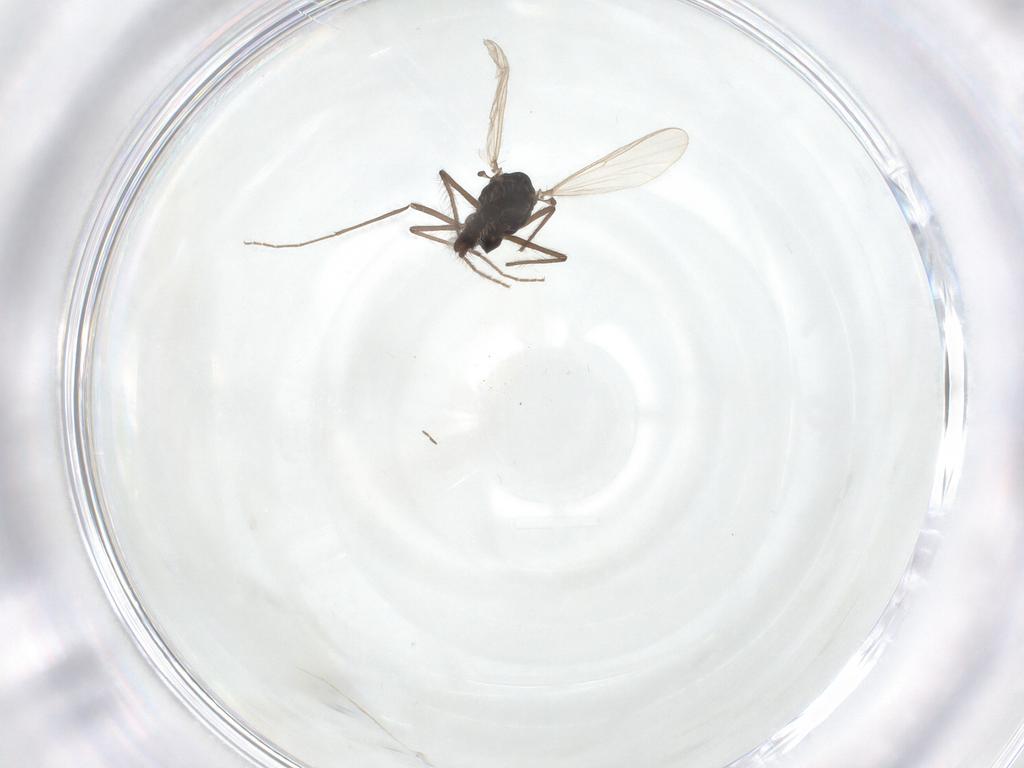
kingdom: Animalia
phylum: Arthropoda
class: Insecta
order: Diptera
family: Chironomidae
